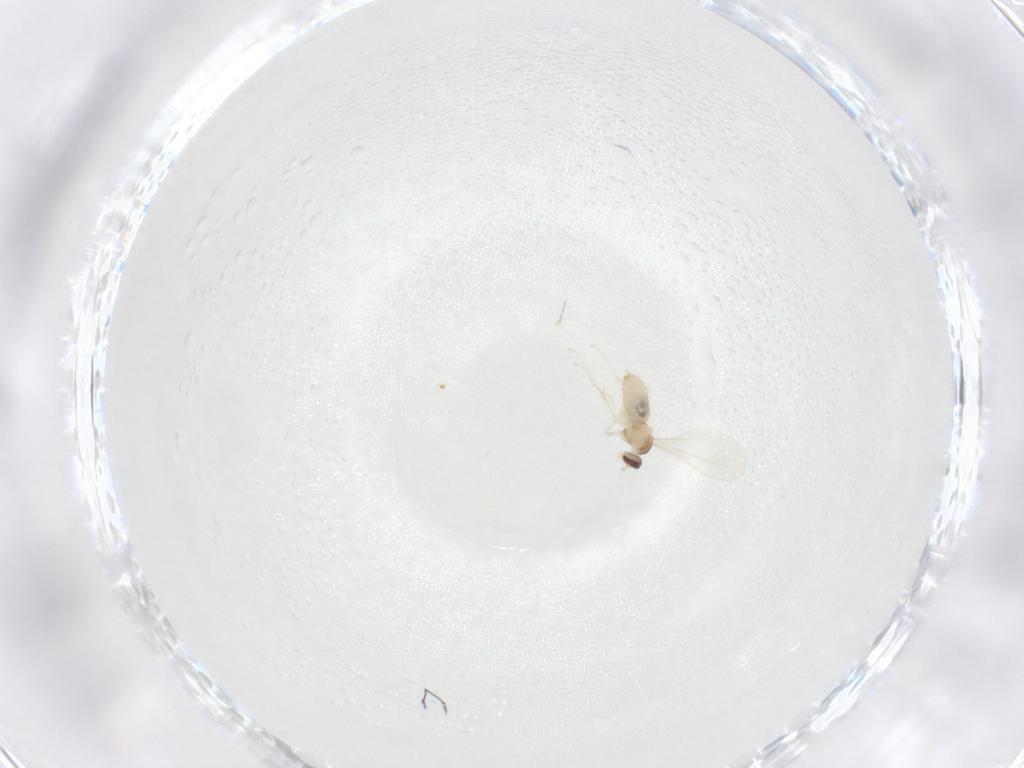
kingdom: Animalia
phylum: Arthropoda
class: Insecta
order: Diptera
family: Cecidomyiidae
